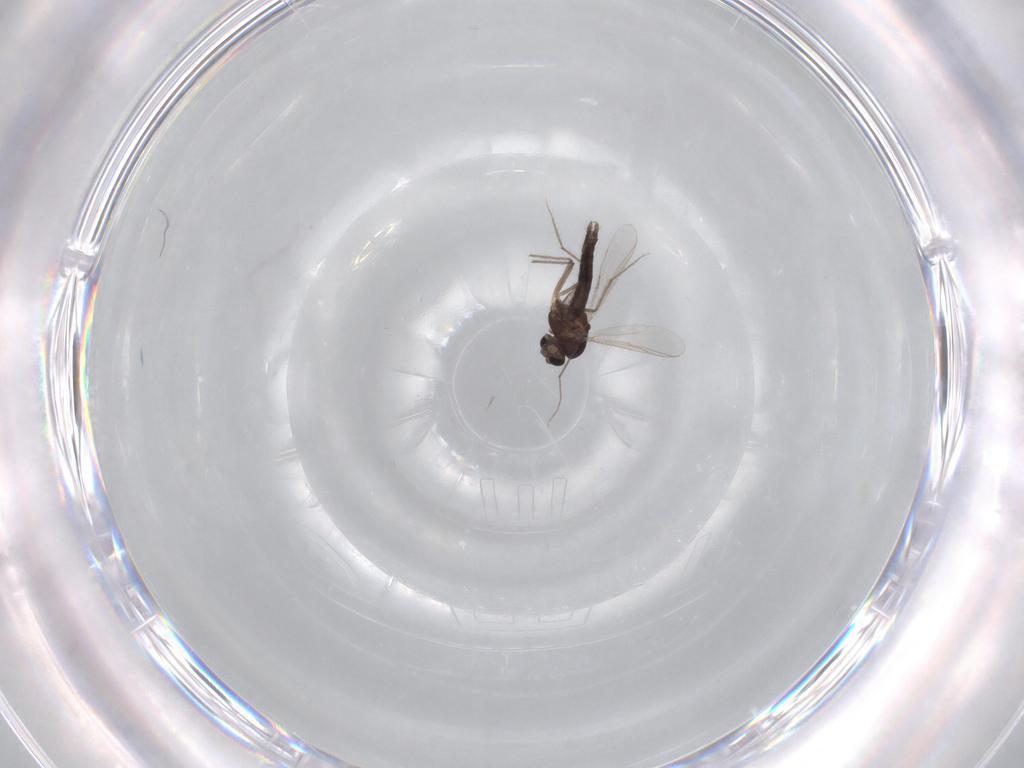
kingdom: Animalia
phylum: Arthropoda
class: Insecta
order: Diptera
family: Chironomidae
